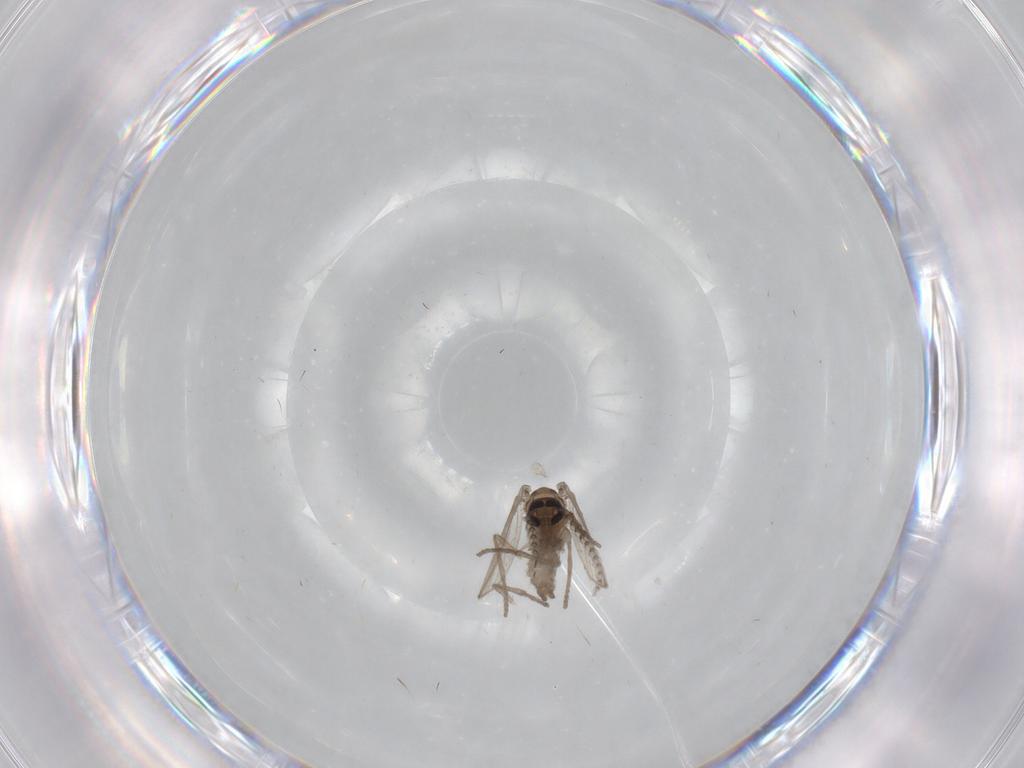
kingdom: Animalia
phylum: Arthropoda
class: Insecta
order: Diptera
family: Psychodidae
